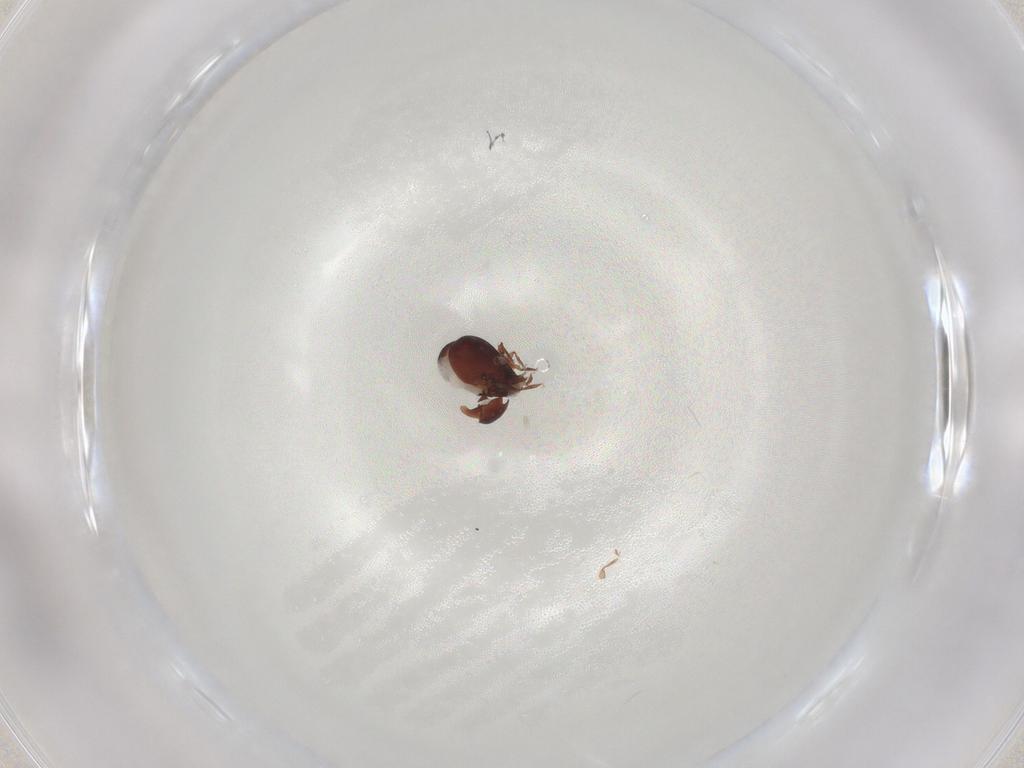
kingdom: Animalia
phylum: Arthropoda
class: Arachnida
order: Sarcoptiformes
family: Humerobatidae
